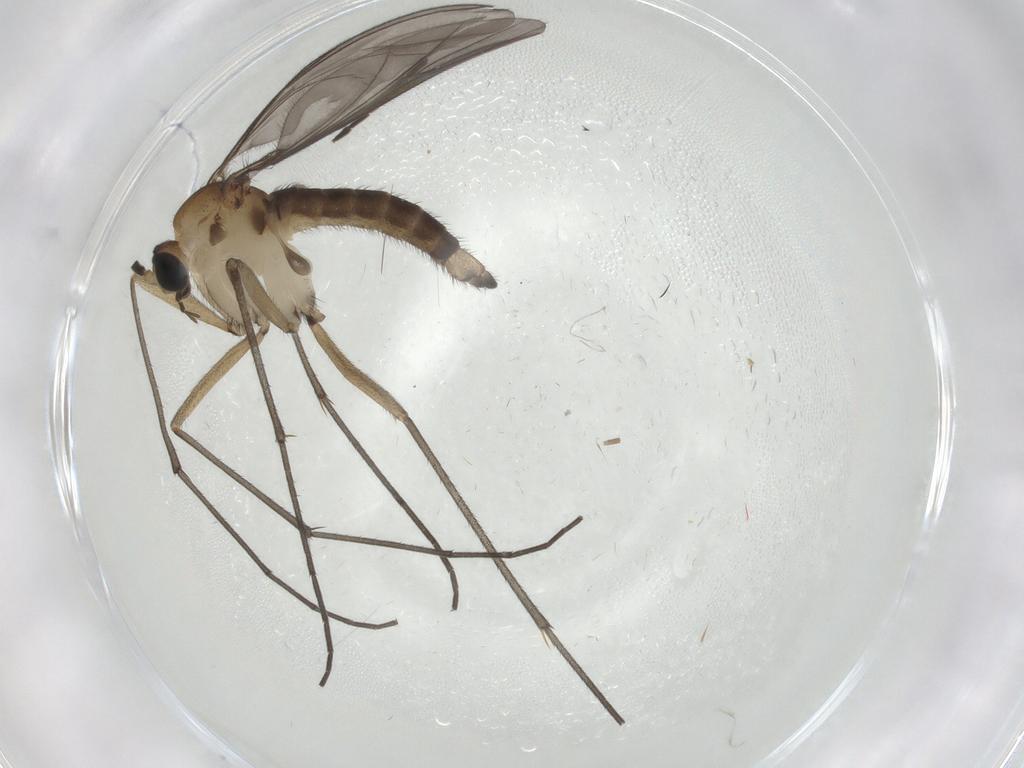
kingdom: Animalia
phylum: Arthropoda
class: Insecta
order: Diptera
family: Sciaridae
